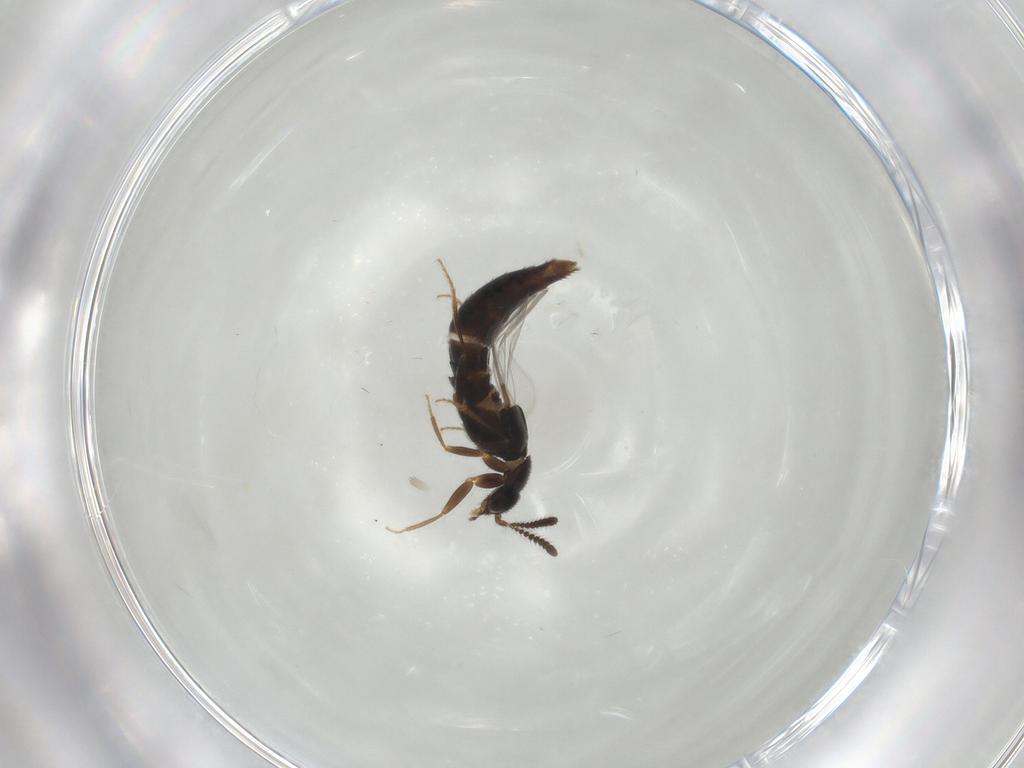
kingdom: Animalia
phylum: Arthropoda
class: Insecta
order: Coleoptera
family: Staphylinidae
